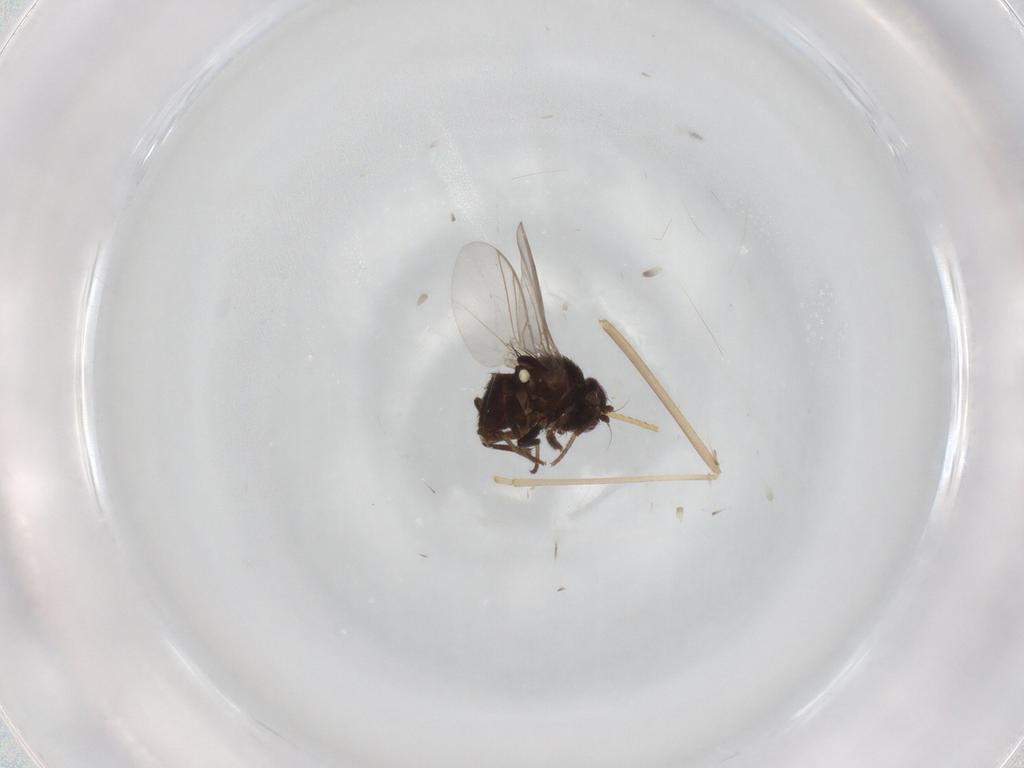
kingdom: Animalia
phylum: Arthropoda
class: Insecta
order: Diptera
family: Cecidomyiidae
